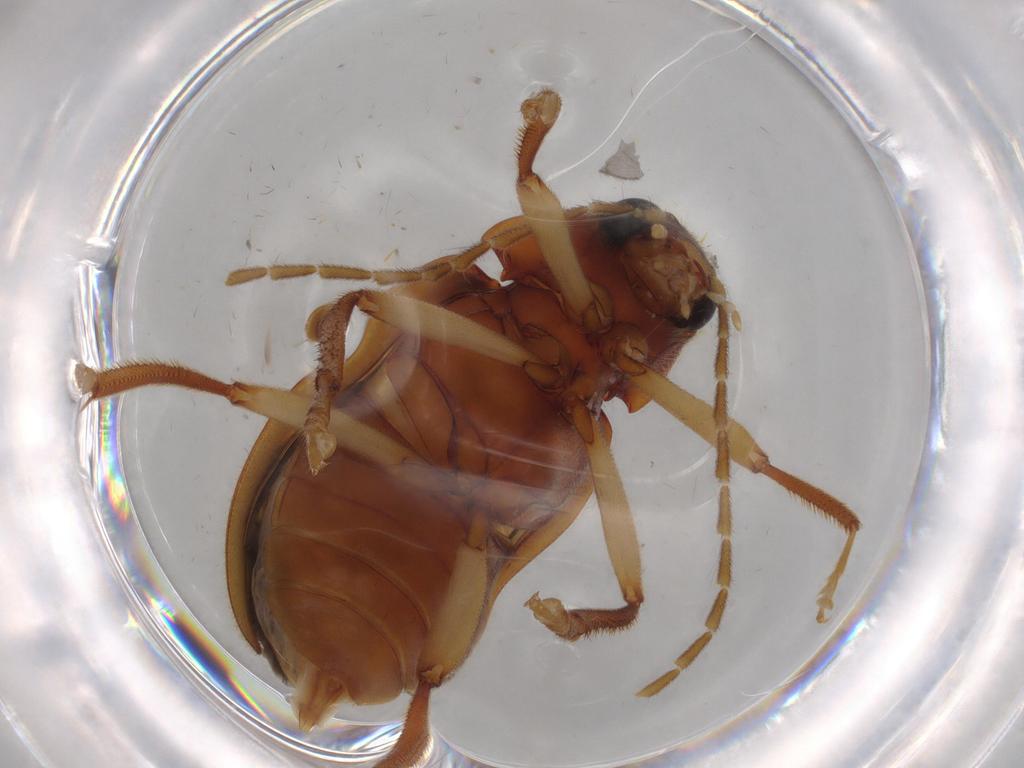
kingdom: Animalia
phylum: Arthropoda
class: Insecta
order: Coleoptera
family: Ptilodactylidae
